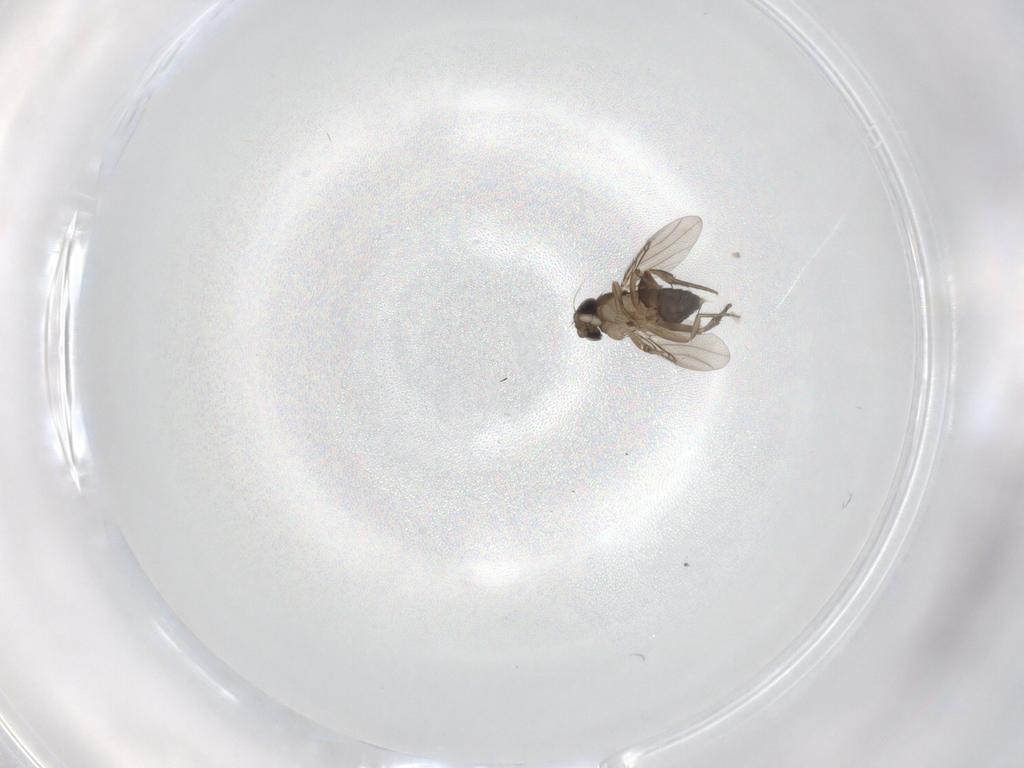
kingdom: Animalia
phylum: Arthropoda
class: Insecta
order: Diptera
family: Phoridae
